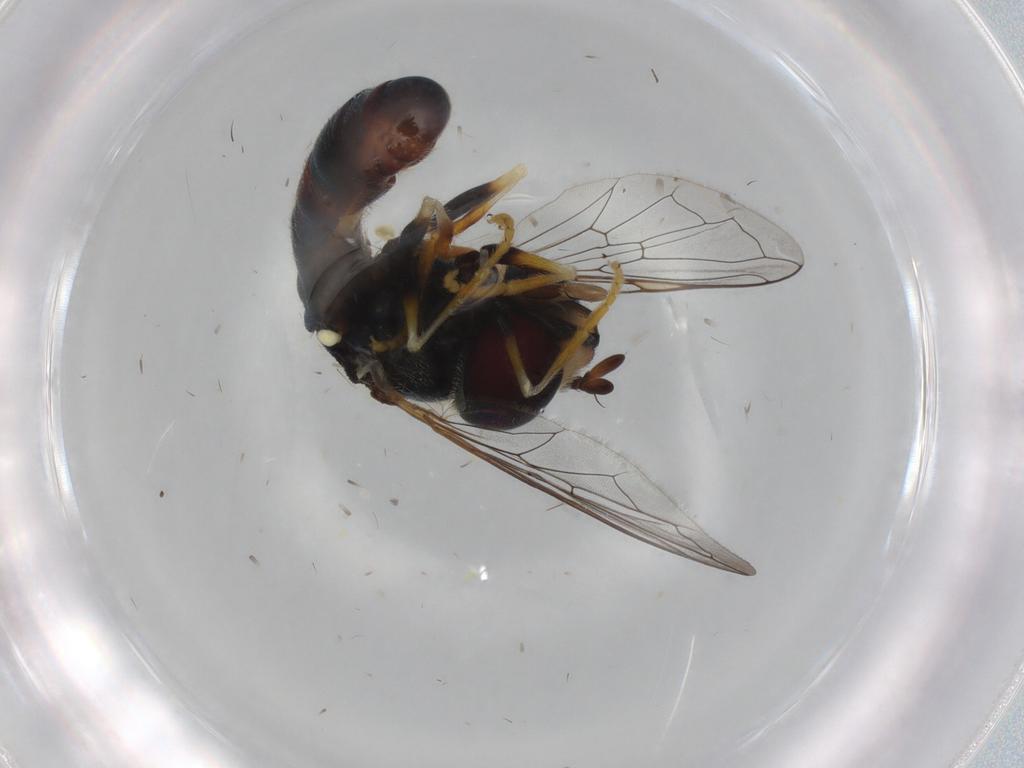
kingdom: Animalia
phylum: Arthropoda
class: Insecta
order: Diptera
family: Syrphidae
